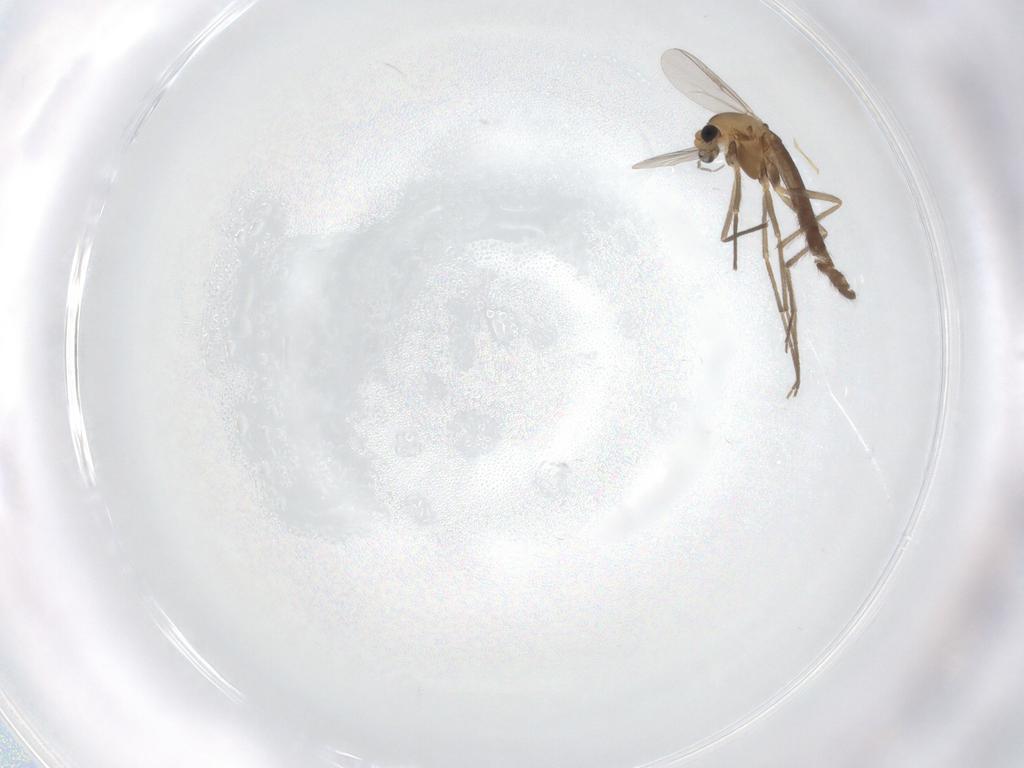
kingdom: Animalia
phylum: Arthropoda
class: Insecta
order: Diptera
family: Chironomidae
